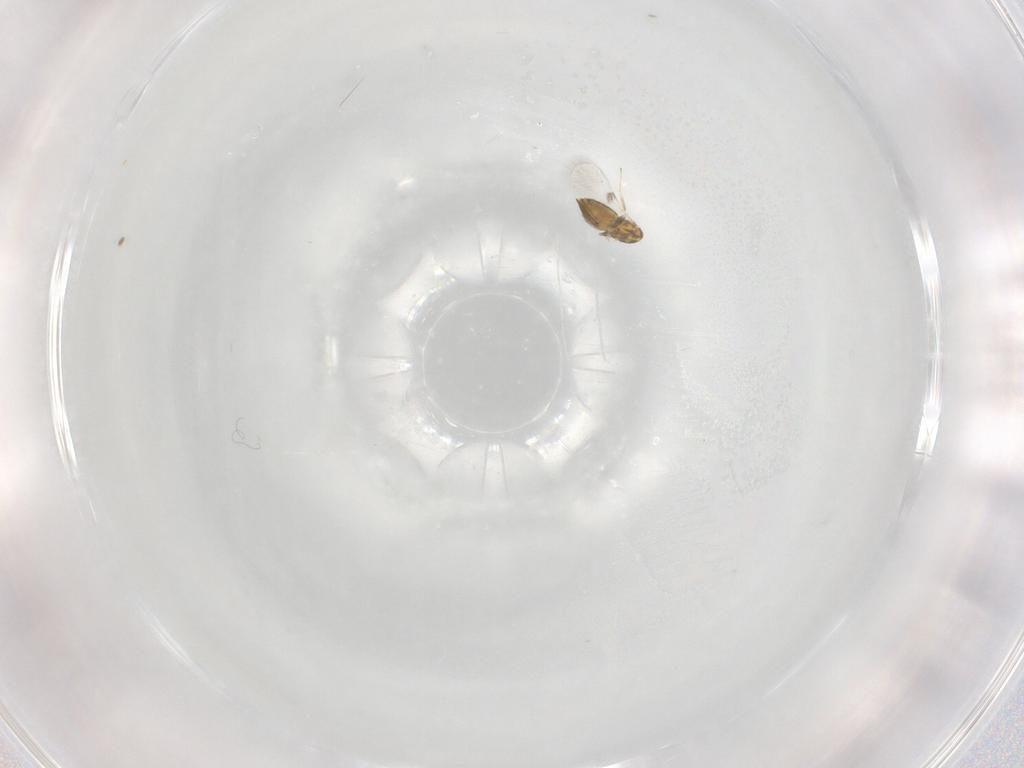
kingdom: Animalia
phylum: Arthropoda
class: Insecta
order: Hymenoptera
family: Trichogrammatidae
